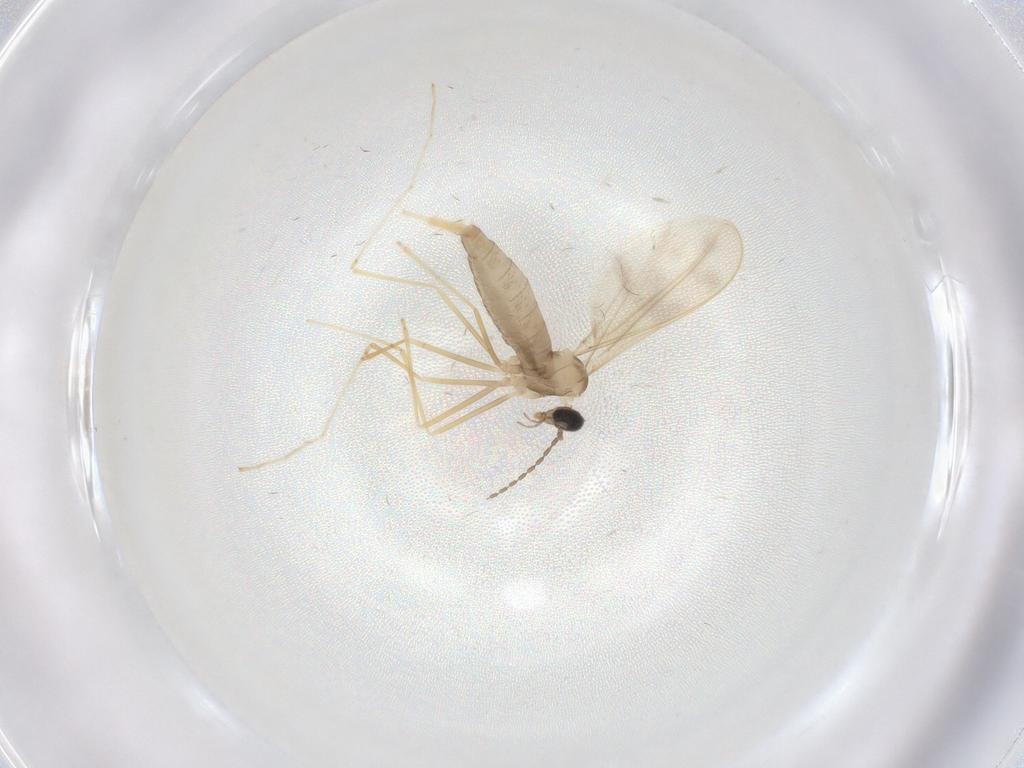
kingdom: Animalia
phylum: Arthropoda
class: Insecta
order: Diptera
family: Cecidomyiidae
